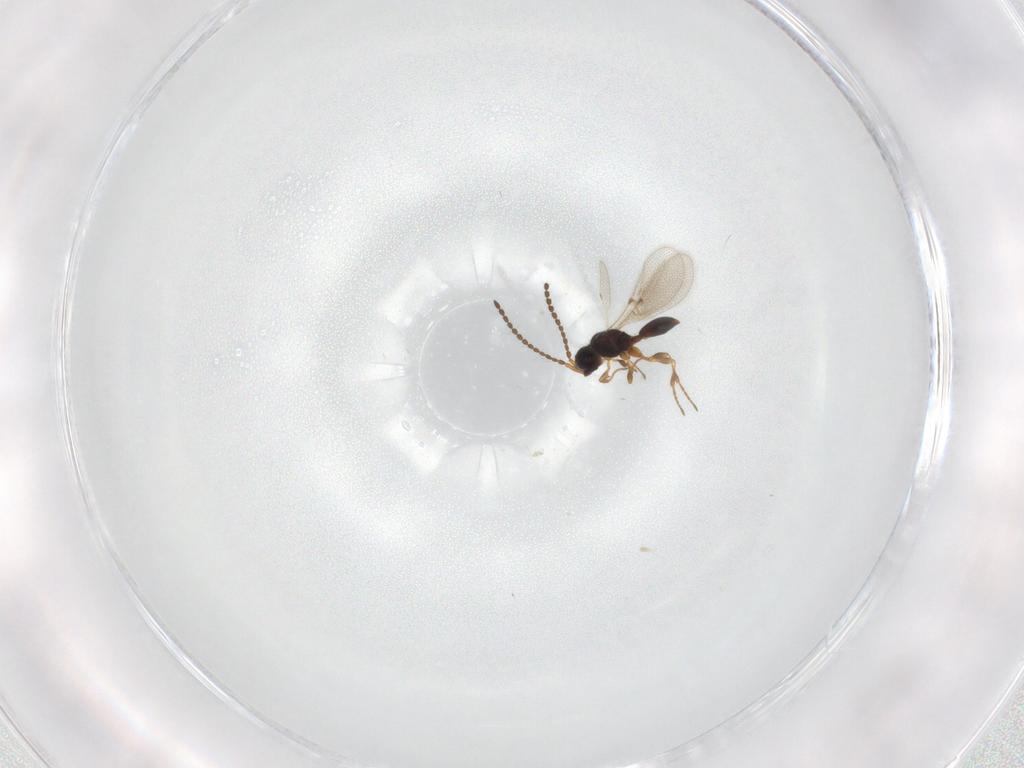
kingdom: Animalia
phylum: Arthropoda
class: Insecta
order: Hymenoptera
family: Diapriidae
